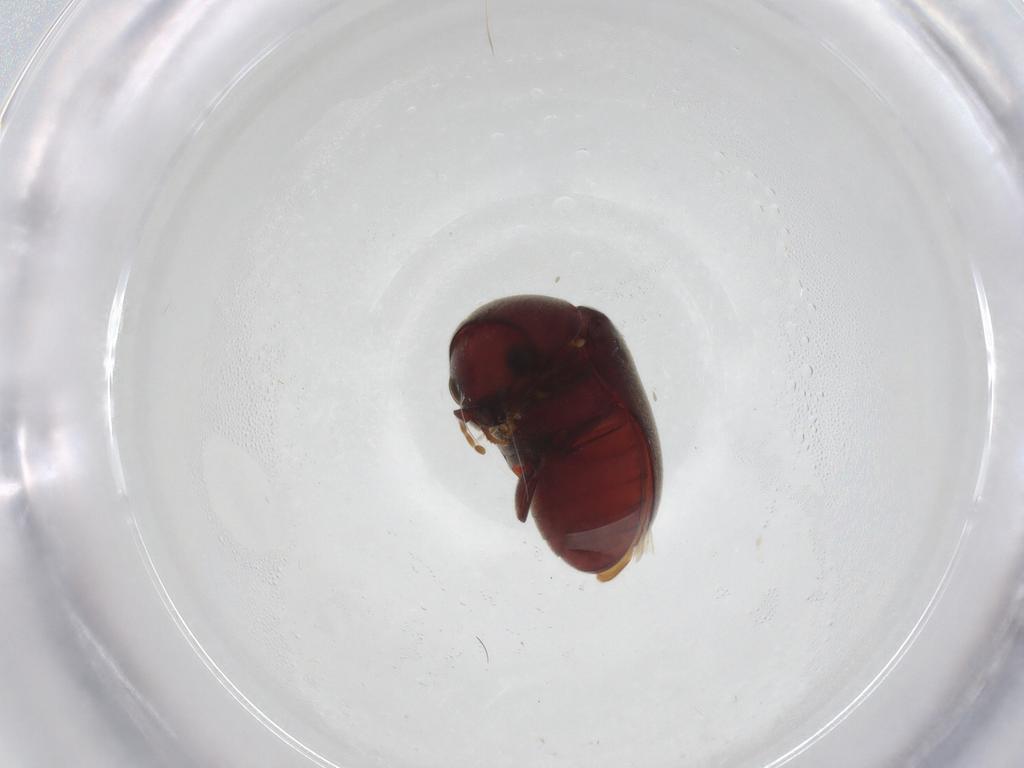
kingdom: Animalia
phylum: Arthropoda
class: Insecta
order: Coleoptera
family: Ptinidae
